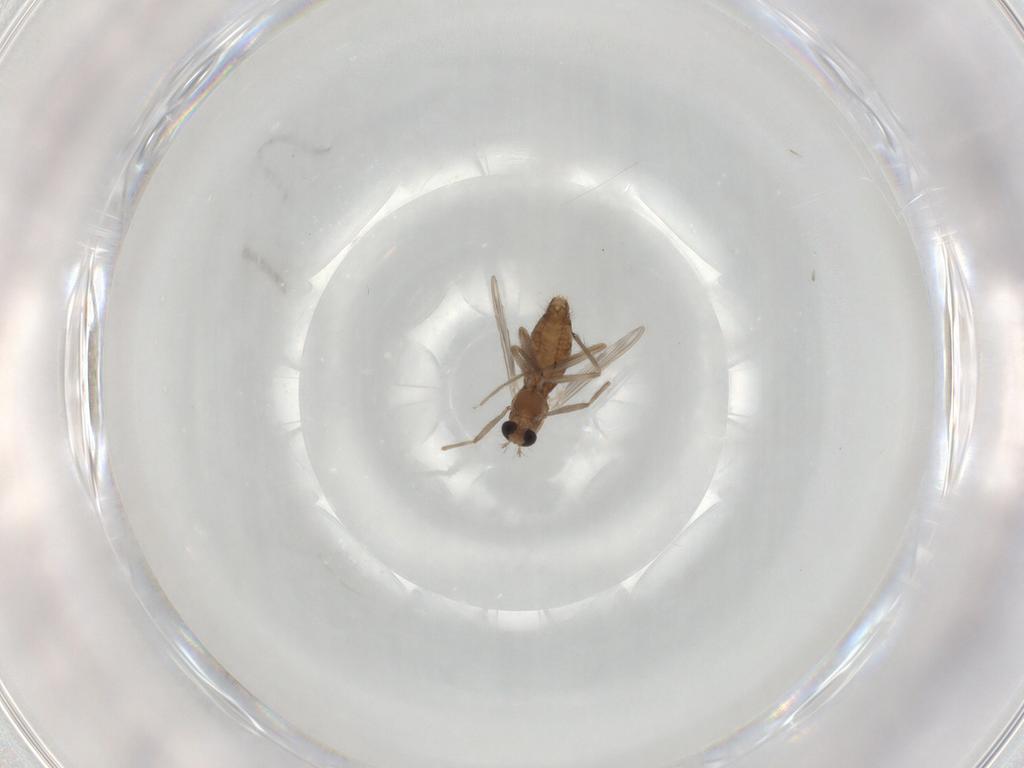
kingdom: Animalia
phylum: Arthropoda
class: Insecta
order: Diptera
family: Chironomidae
